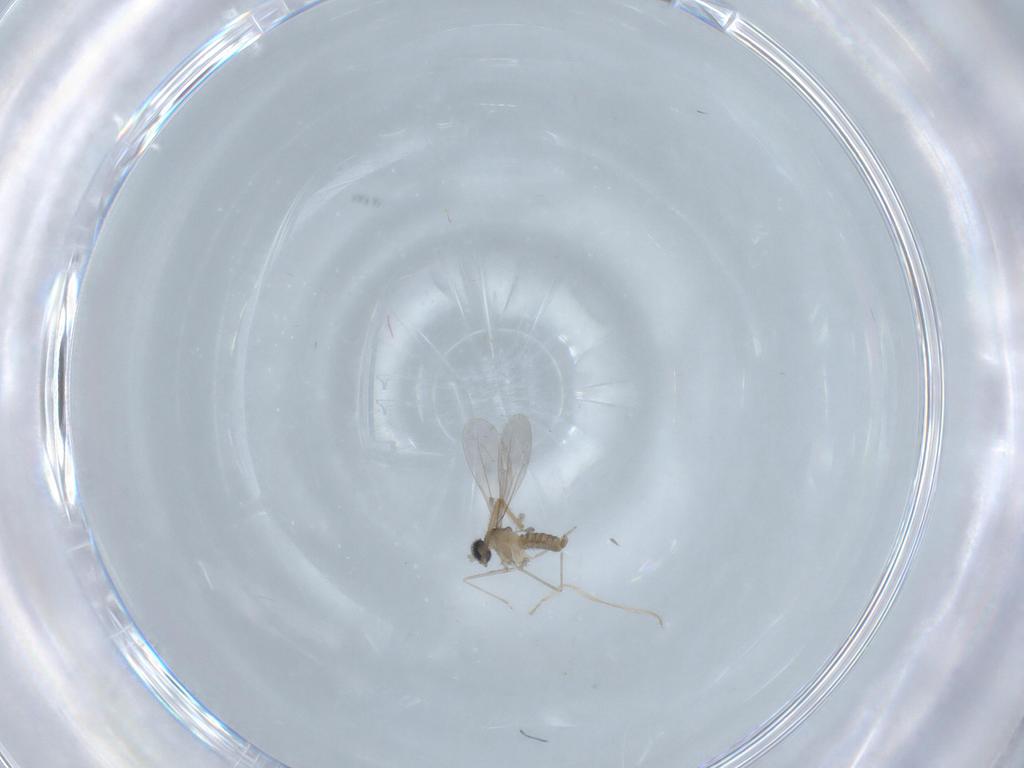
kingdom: Animalia
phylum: Arthropoda
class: Insecta
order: Diptera
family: Cecidomyiidae
